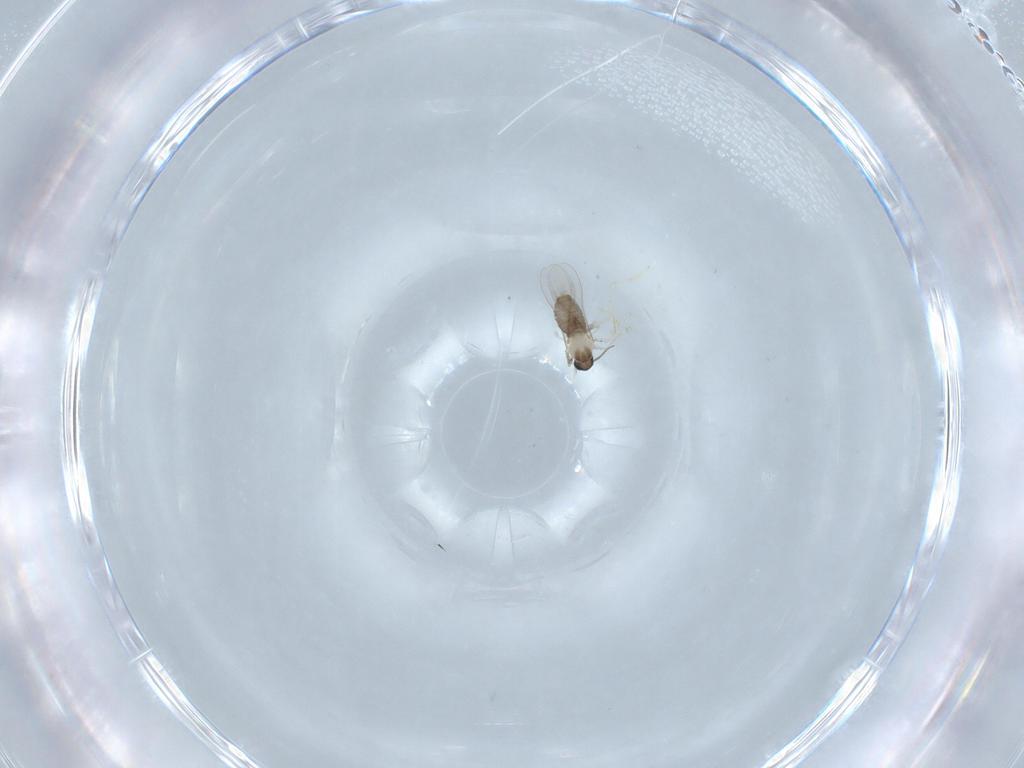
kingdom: Animalia
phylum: Arthropoda
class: Insecta
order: Diptera
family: Cecidomyiidae
